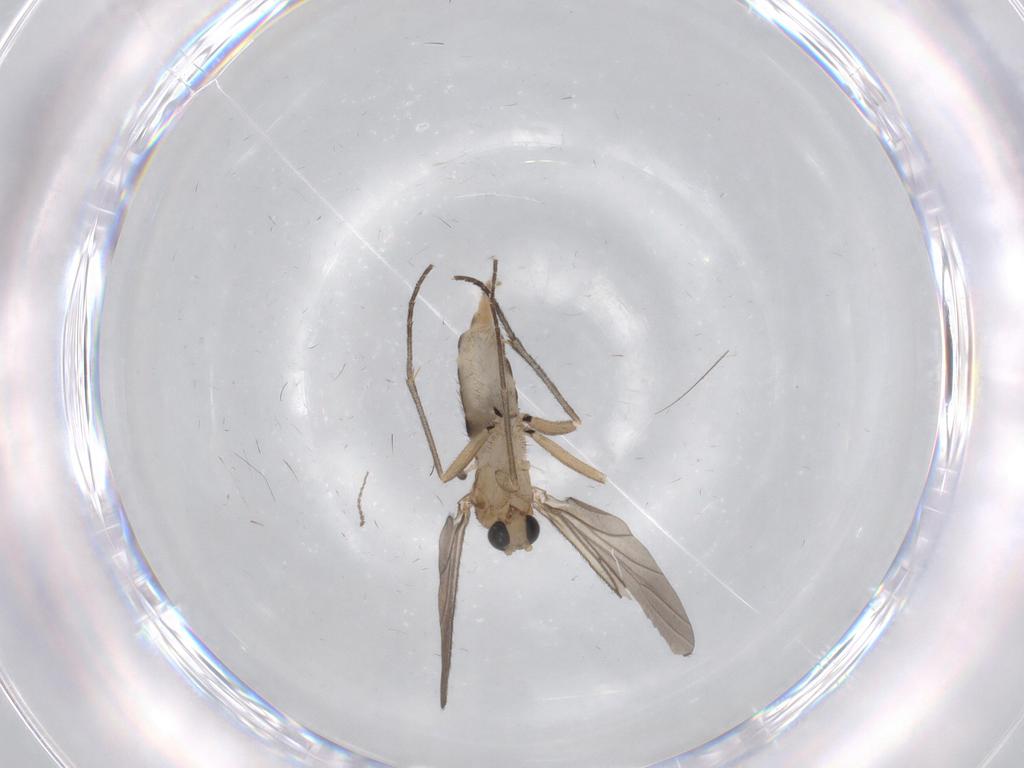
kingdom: Animalia
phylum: Arthropoda
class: Insecta
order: Diptera
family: Sciaridae
